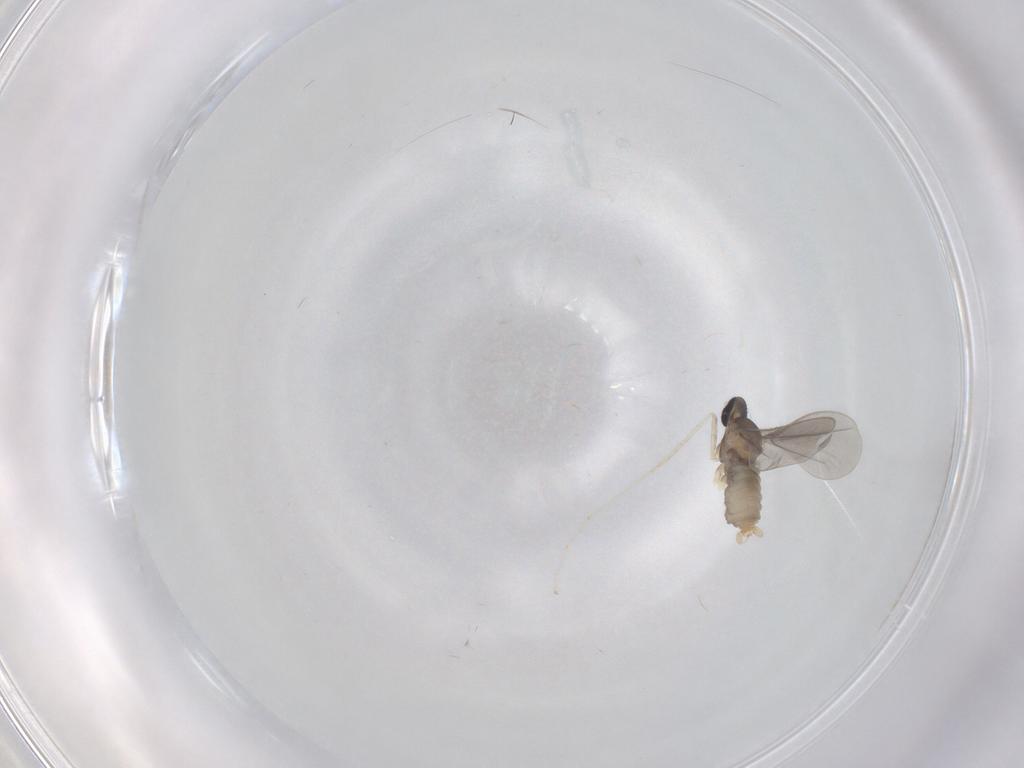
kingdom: Animalia
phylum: Arthropoda
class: Insecta
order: Diptera
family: Cecidomyiidae
